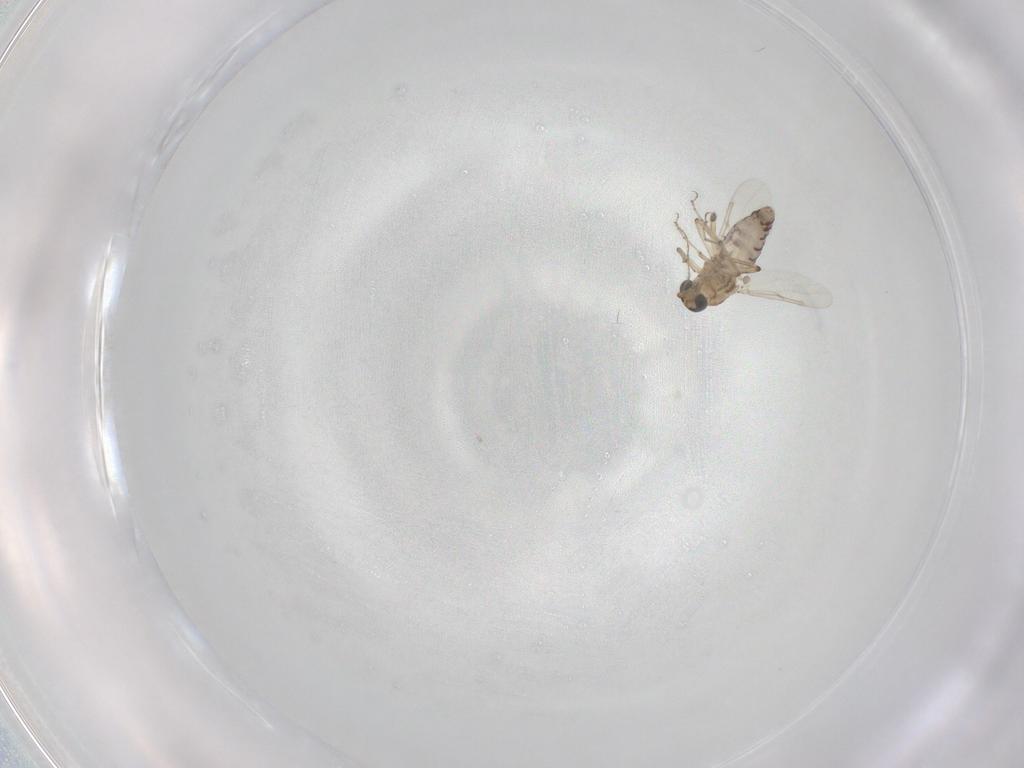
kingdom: Animalia
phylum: Arthropoda
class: Insecta
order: Diptera
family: Ceratopogonidae
